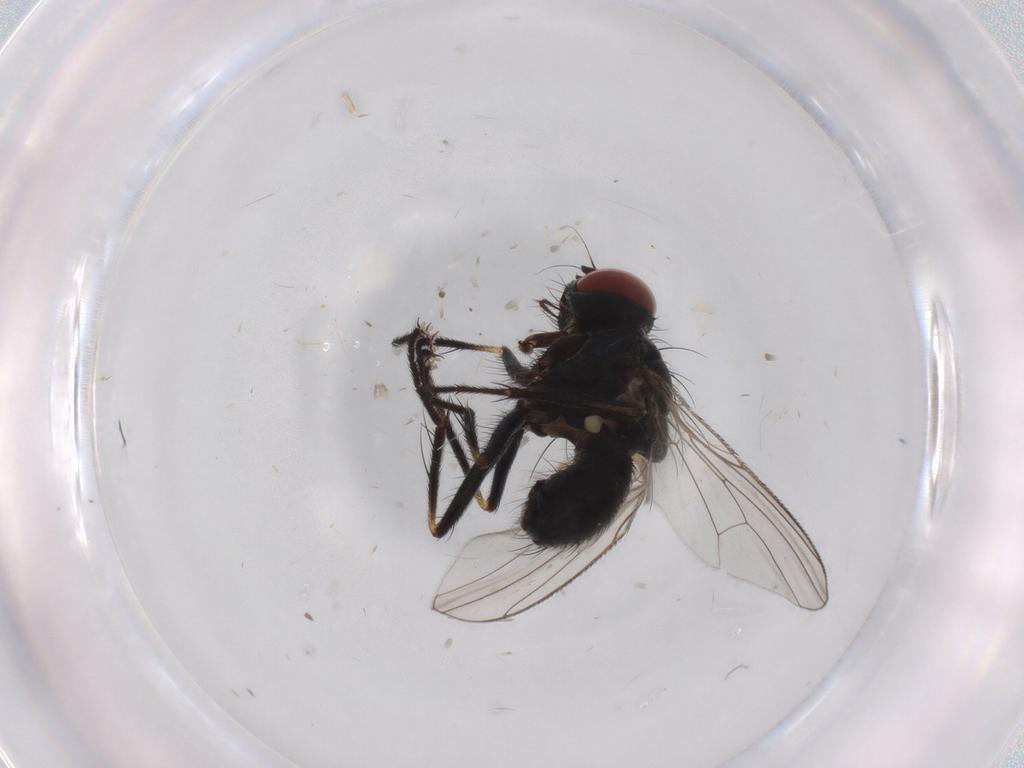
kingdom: Animalia
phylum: Arthropoda
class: Insecta
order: Diptera
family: Muscidae
